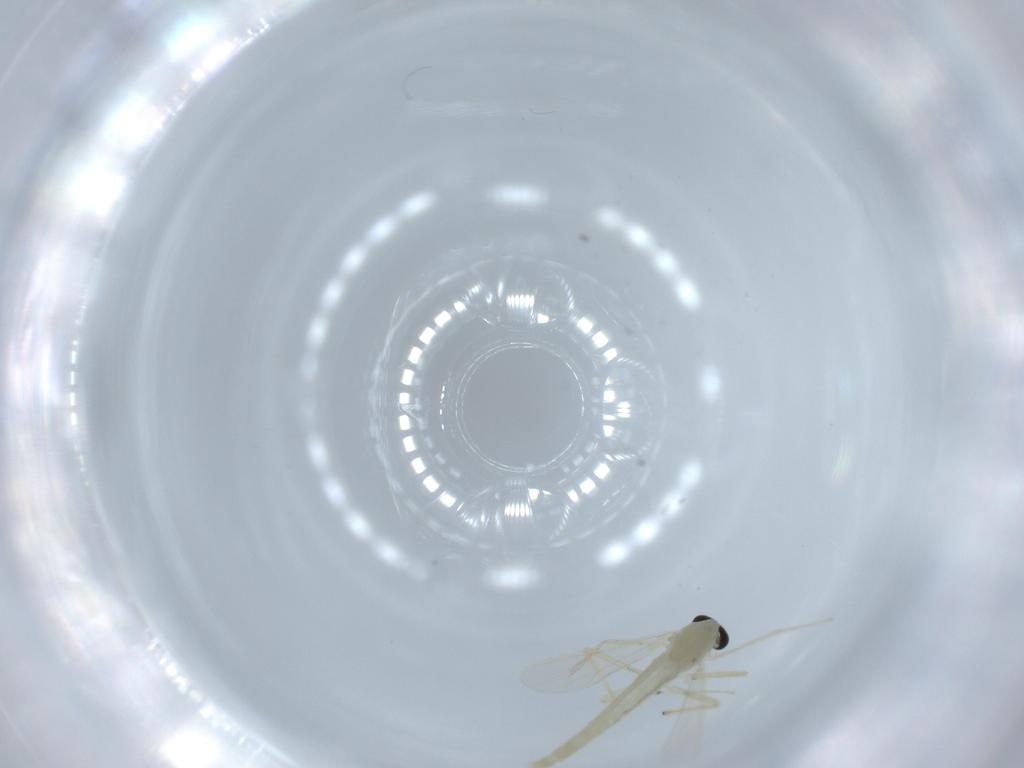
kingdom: Animalia
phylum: Arthropoda
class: Insecta
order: Diptera
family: Chironomidae
